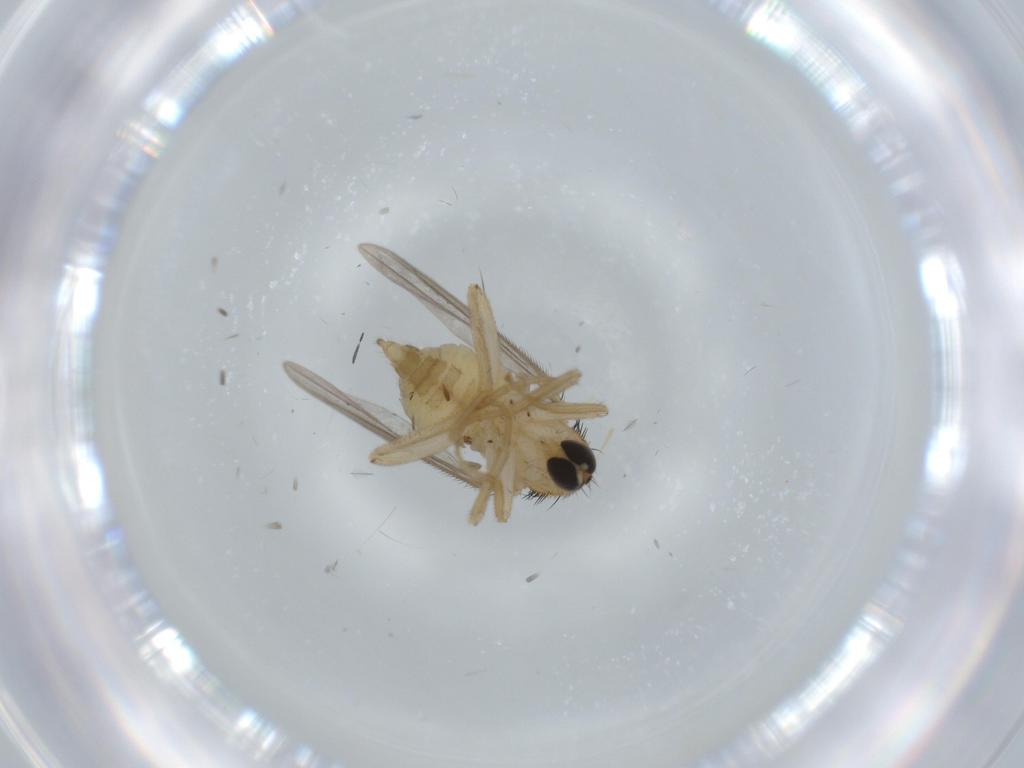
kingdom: Animalia
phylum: Arthropoda
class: Insecta
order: Diptera
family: Hybotidae
